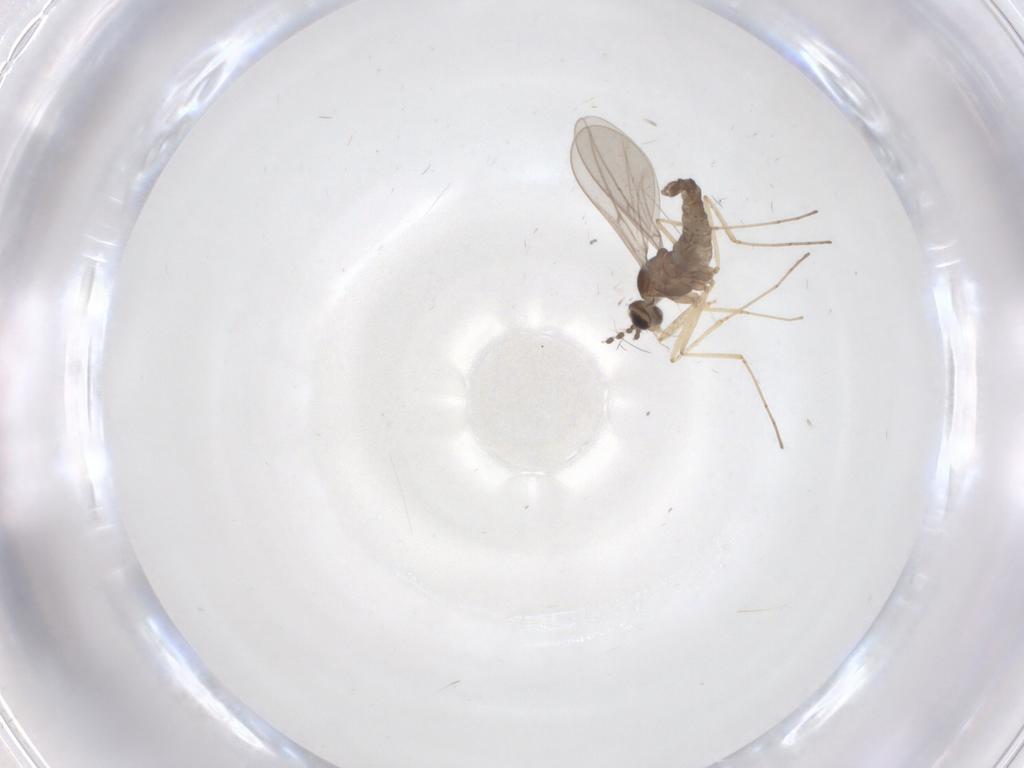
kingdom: Animalia
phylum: Arthropoda
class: Insecta
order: Diptera
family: Cecidomyiidae
